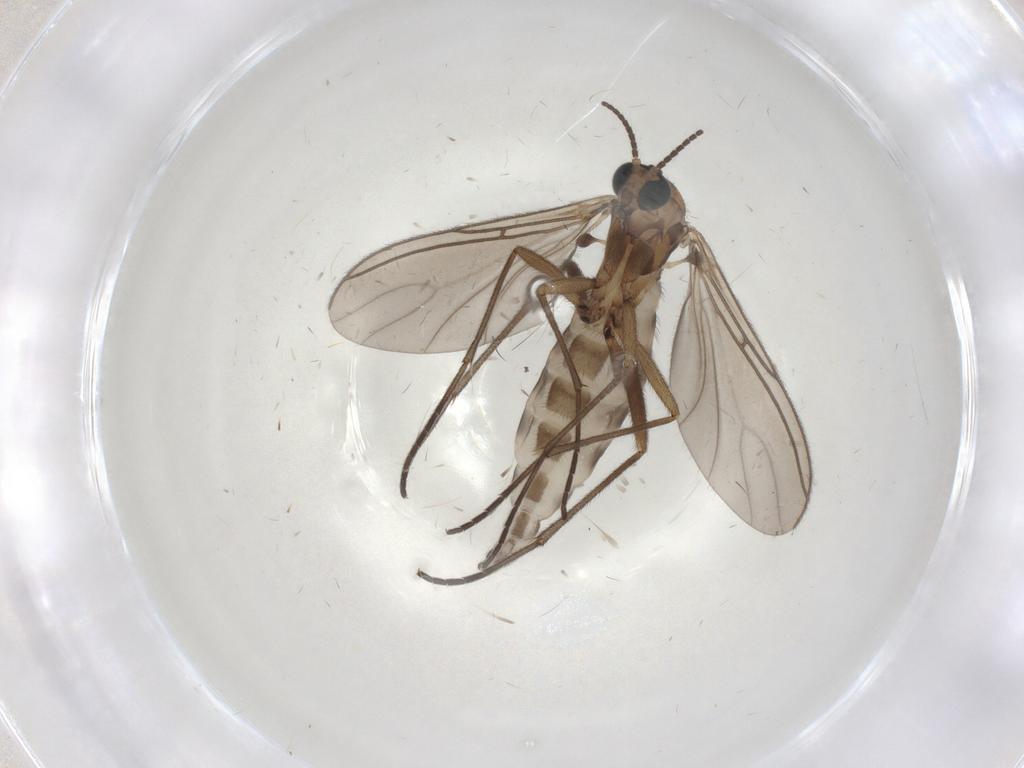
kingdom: Animalia
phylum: Arthropoda
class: Insecta
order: Diptera
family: Sciaridae
